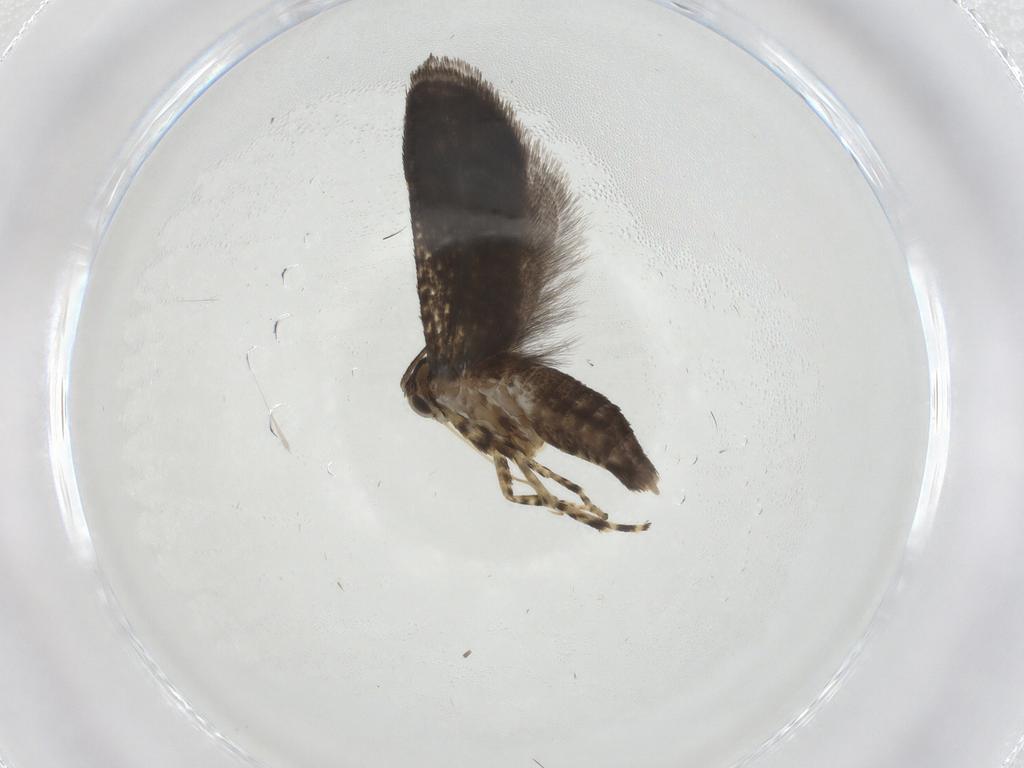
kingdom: Animalia
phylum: Arthropoda
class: Insecta
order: Lepidoptera
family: Geometridae
